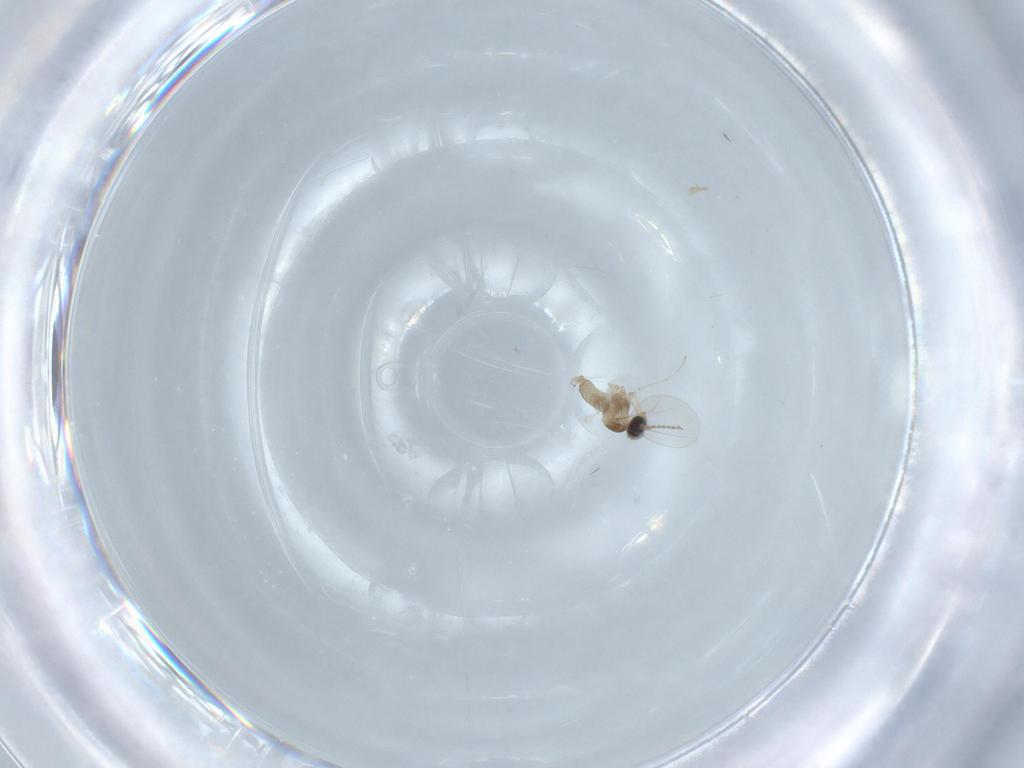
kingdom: Animalia
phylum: Arthropoda
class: Insecta
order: Diptera
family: Cecidomyiidae
